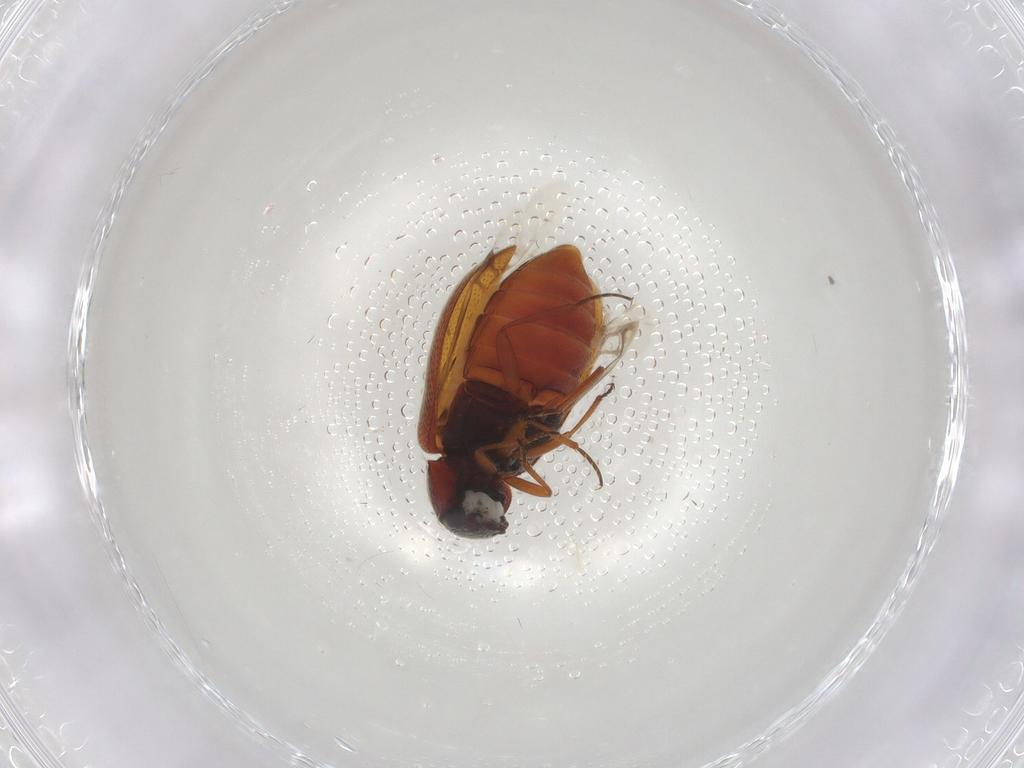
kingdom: Animalia
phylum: Arthropoda
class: Insecta
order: Coleoptera
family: Rhadalidae
